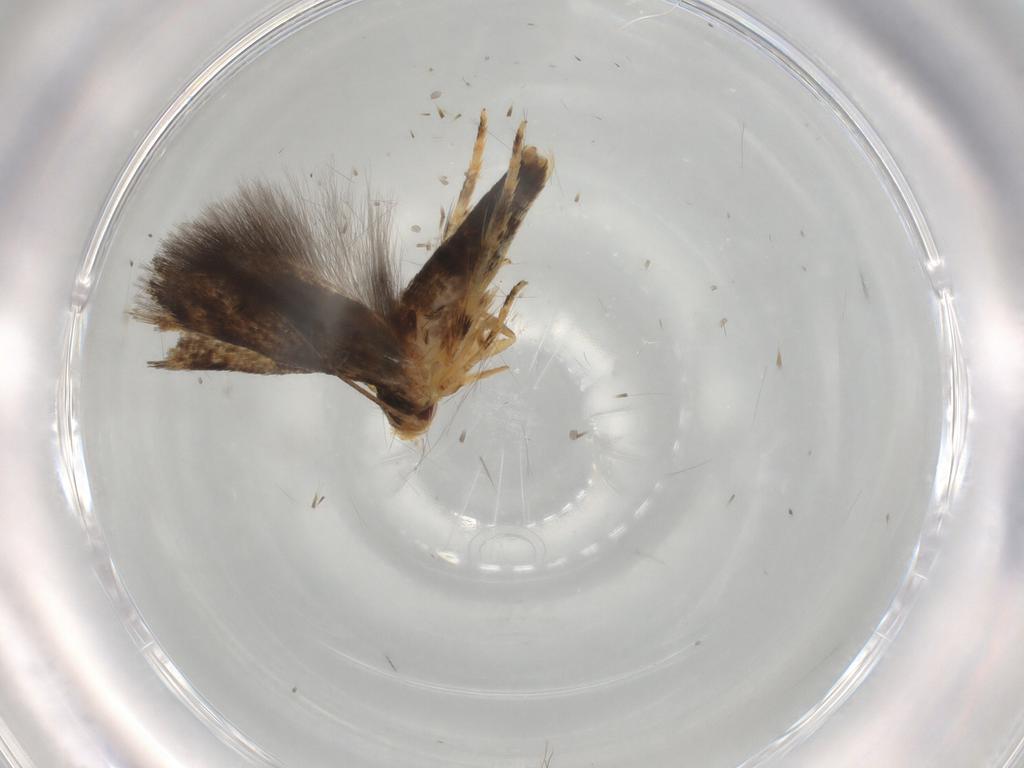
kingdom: Animalia
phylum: Arthropoda
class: Insecta
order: Lepidoptera
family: Momphidae
